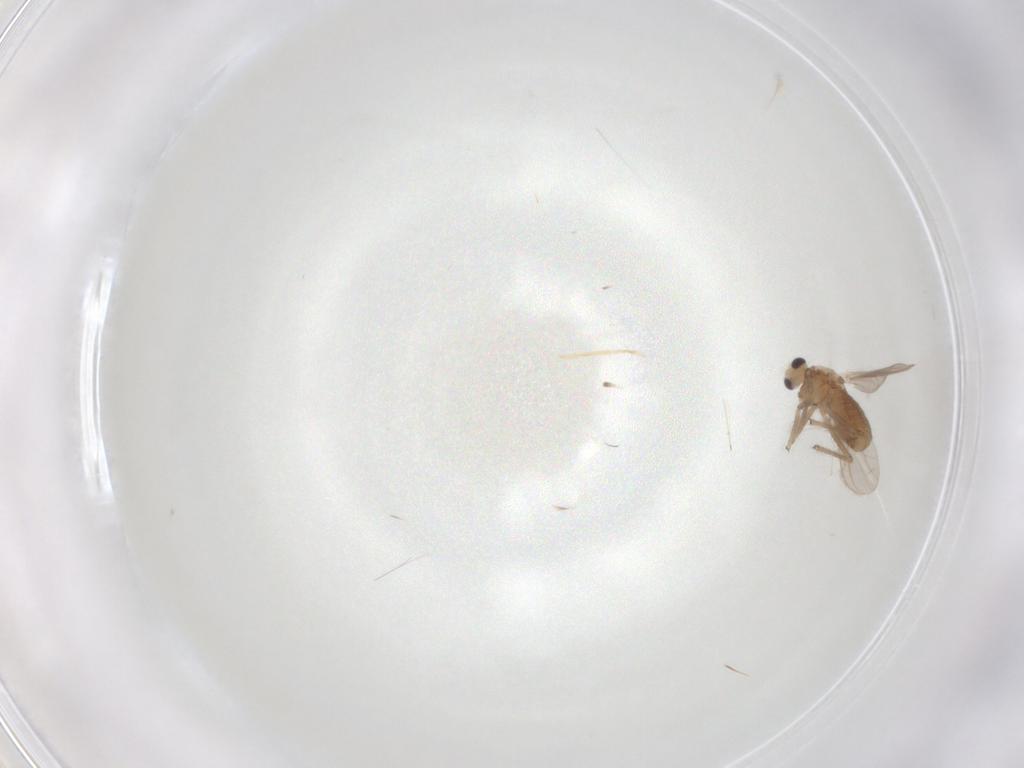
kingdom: Animalia
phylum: Arthropoda
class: Insecta
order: Diptera
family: Chironomidae
